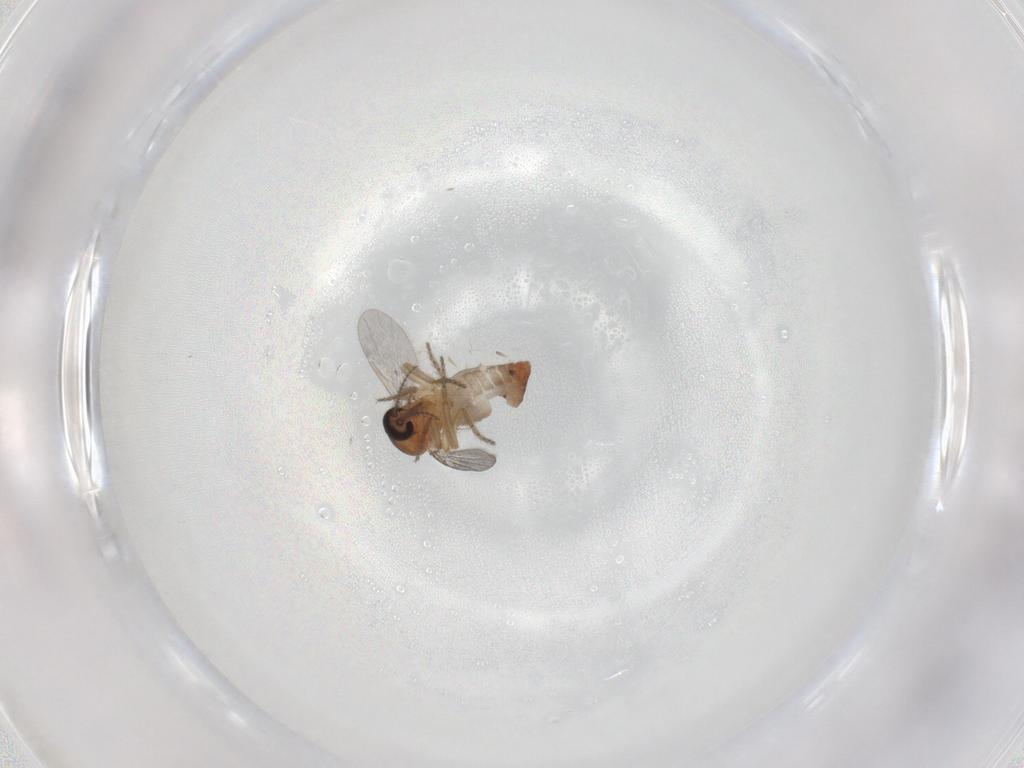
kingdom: Animalia
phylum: Arthropoda
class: Insecta
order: Diptera
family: Ceratopogonidae
